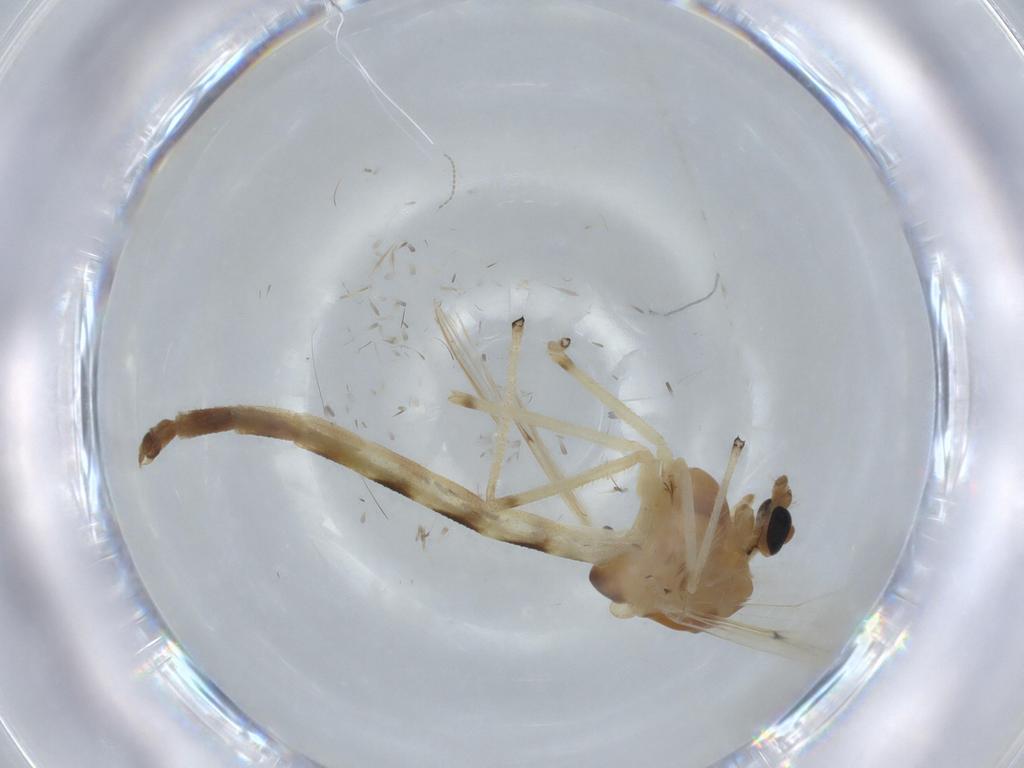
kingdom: Animalia
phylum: Arthropoda
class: Insecta
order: Diptera
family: Chironomidae
